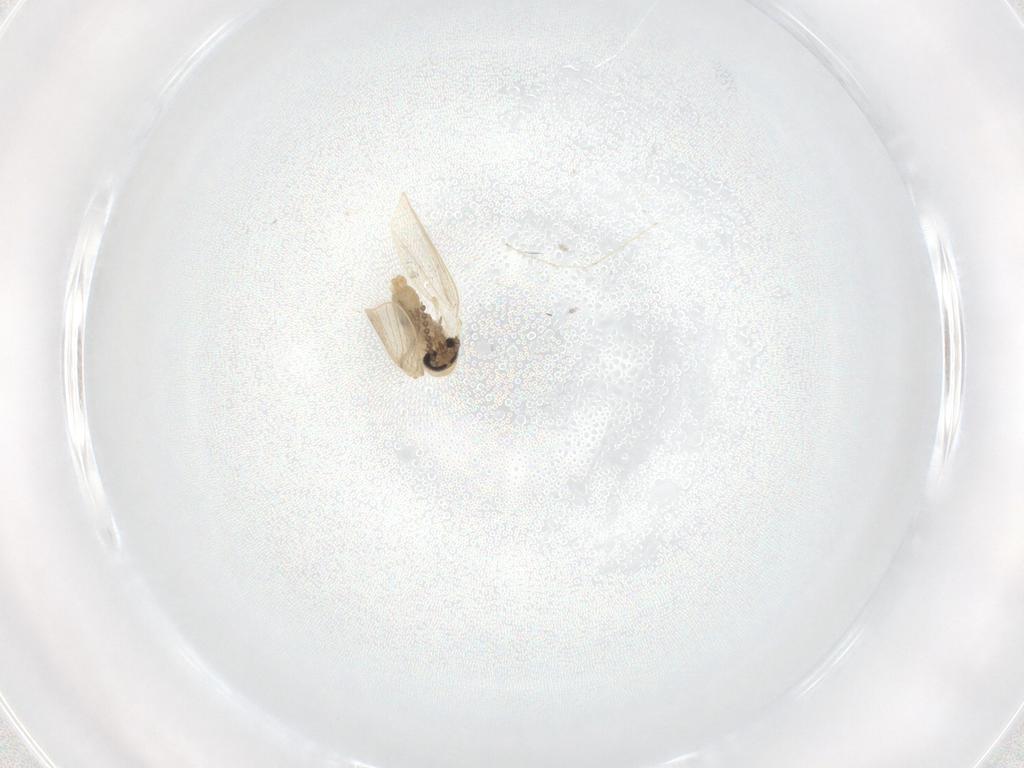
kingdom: Animalia
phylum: Arthropoda
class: Insecta
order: Diptera
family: Psychodidae
